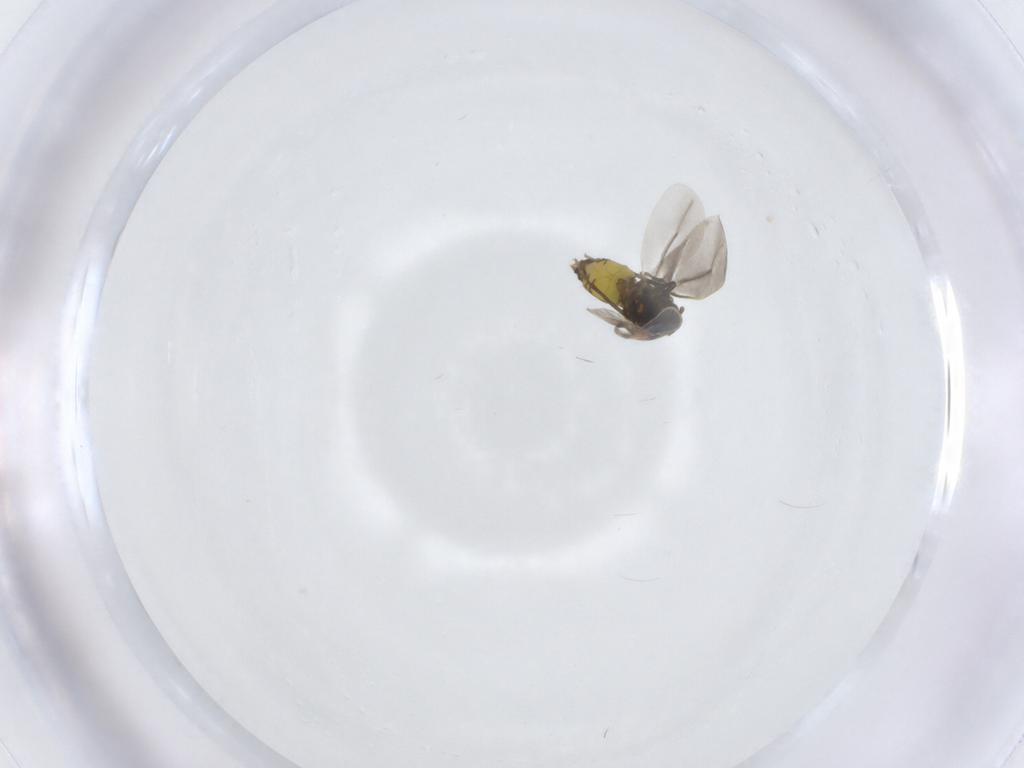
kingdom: Animalia
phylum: Arthropoda
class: Insecta
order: Hemiptera
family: Aleyrodidae
